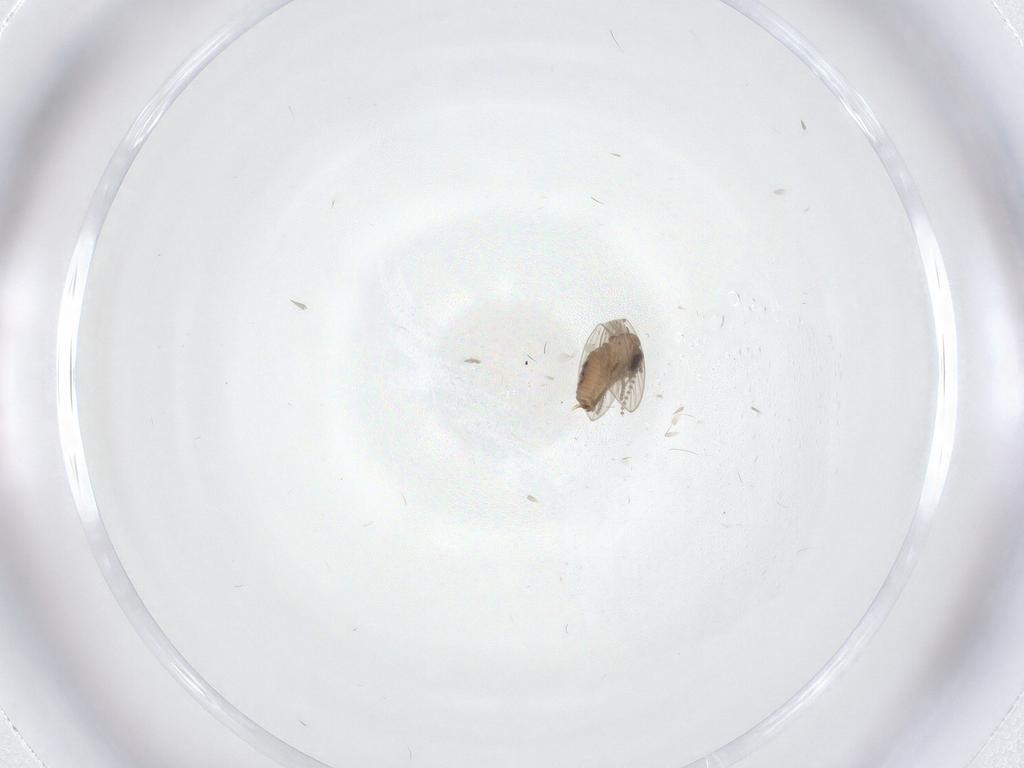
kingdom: Animalia
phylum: Arthropoda
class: Insecta
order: Diptera
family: Psychodidae
